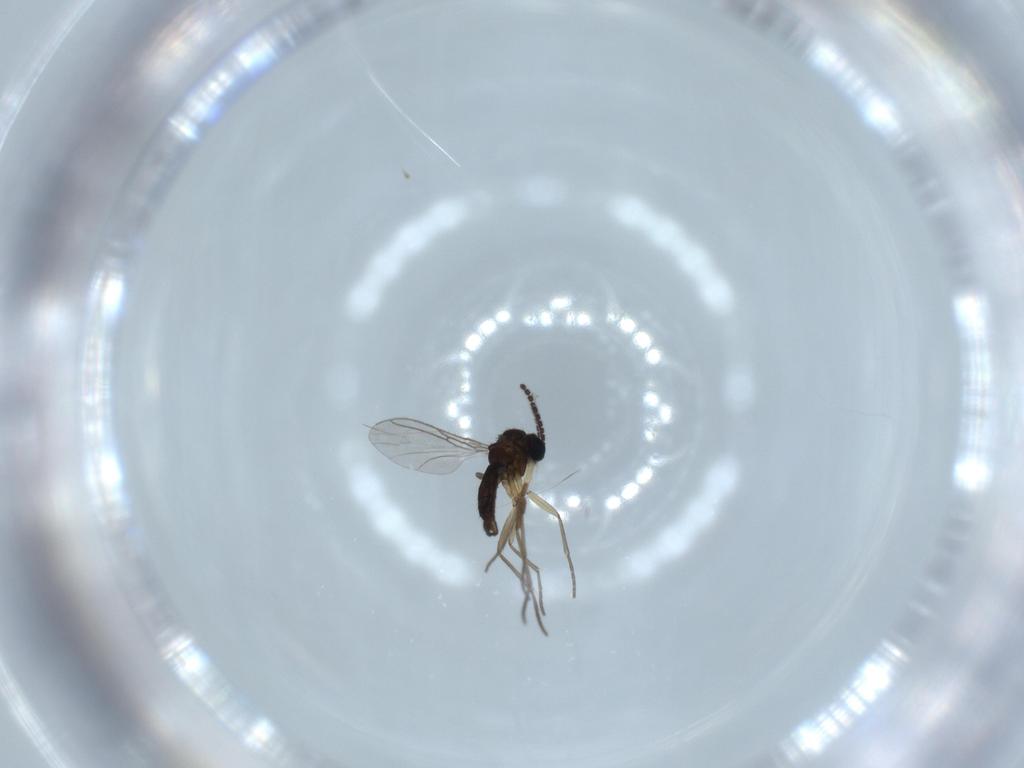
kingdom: Animalia
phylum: Arthropoda
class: Insecta
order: Diptera
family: Sciaridae
